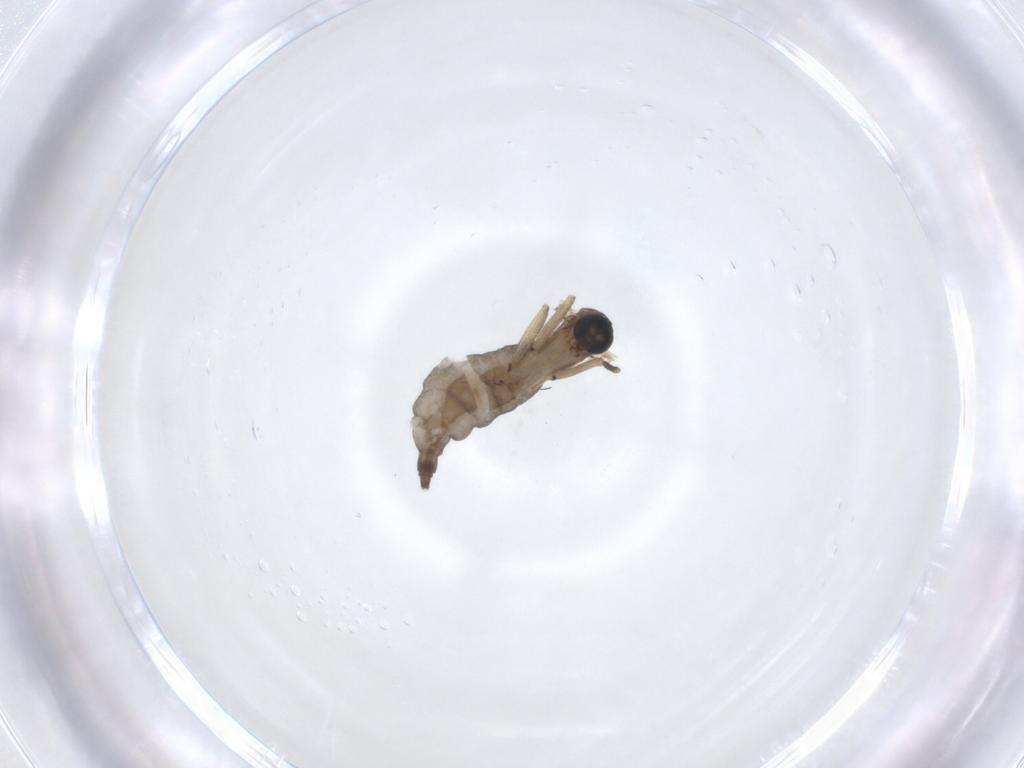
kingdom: Animalia
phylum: Arthropoda
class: Insecta
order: Diptera
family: Sciaridae
